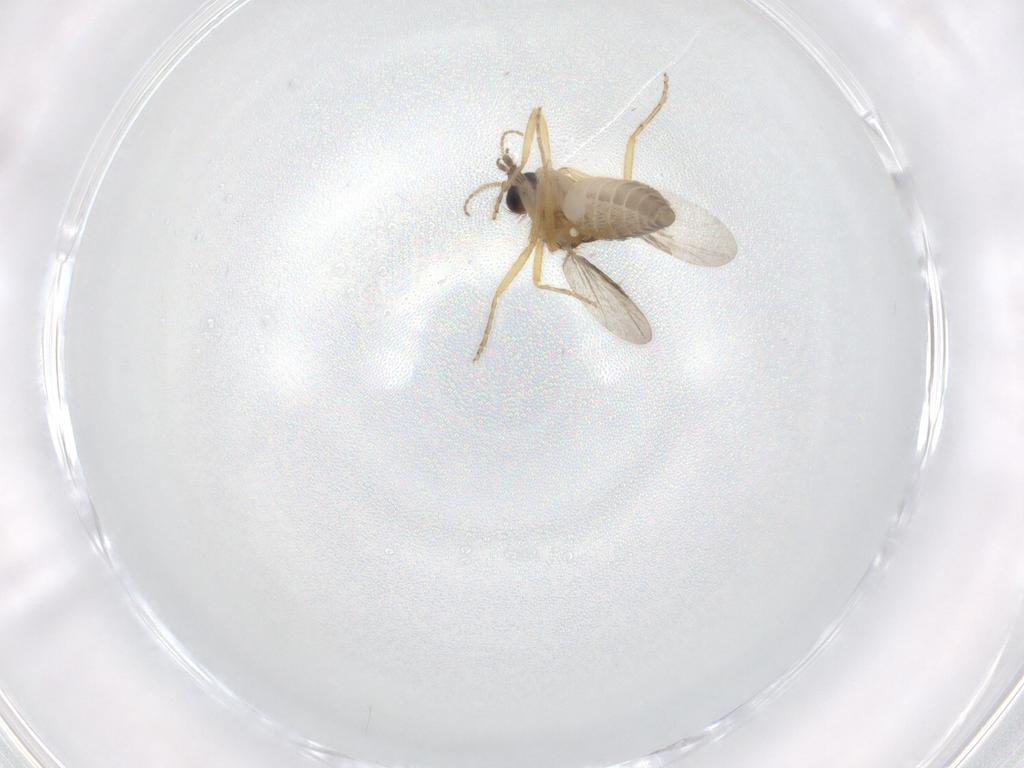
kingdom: Animalia
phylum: Arthropoda
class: Insecta
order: Diptera
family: Ceratopogonidae
